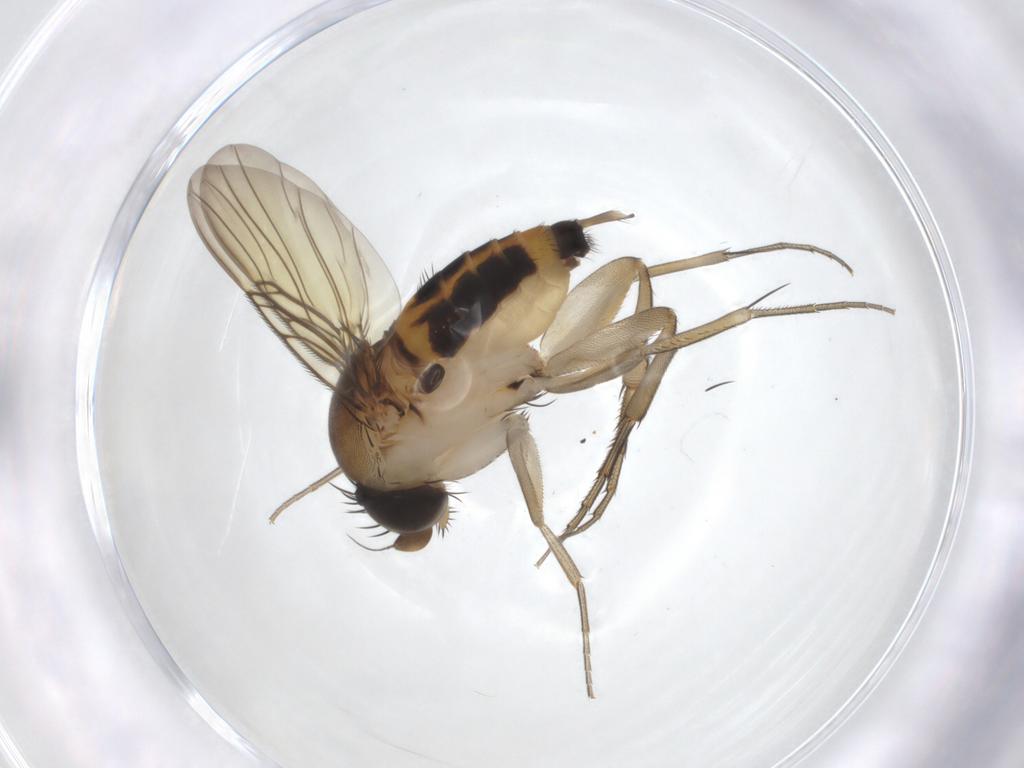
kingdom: Animalia
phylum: Arthropoda
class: Insecta
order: Diptera
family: Phoridae
